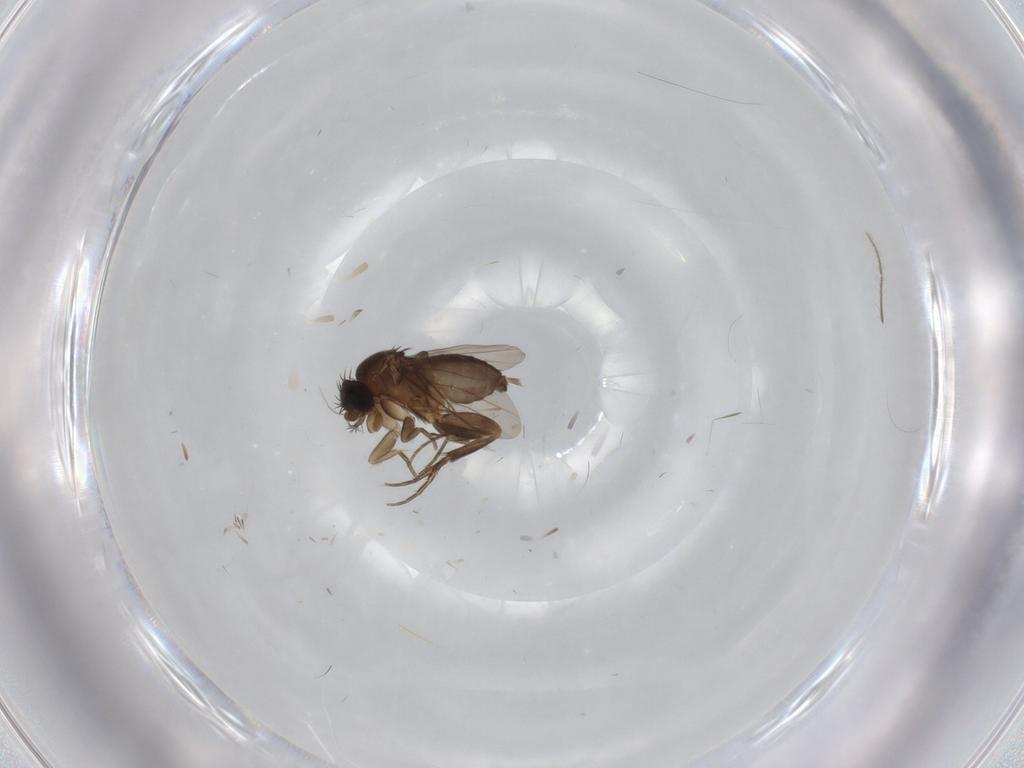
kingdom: Animalia
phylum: Arthropoda
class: Insecta
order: Diptera
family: Phoridae
